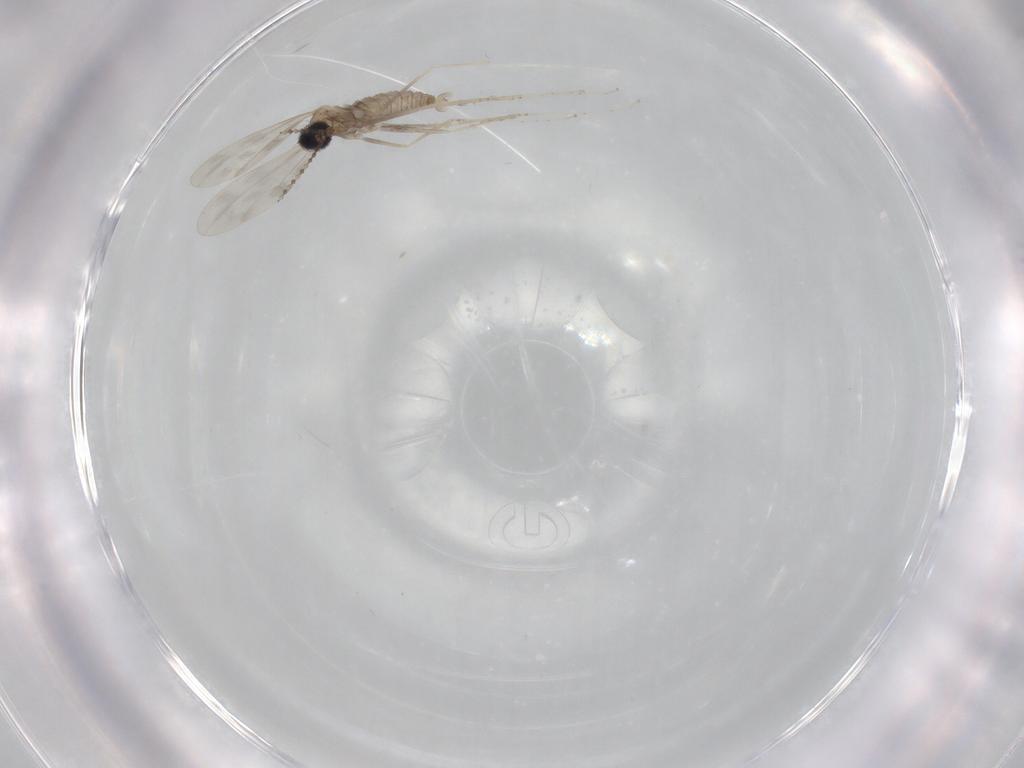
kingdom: Animalia
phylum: Arthropoda
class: Insecta
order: Diptera
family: Cecidomyiidae
